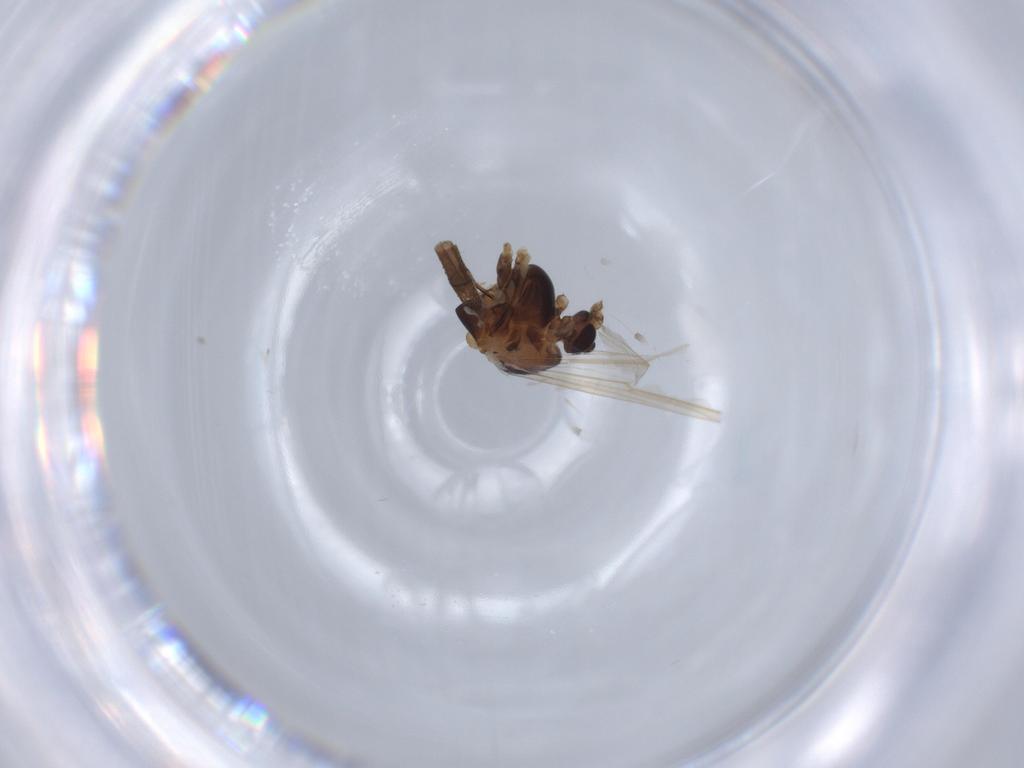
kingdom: Animalia
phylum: Arthropoda
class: Insecta
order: Diptera
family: Chironomidae
